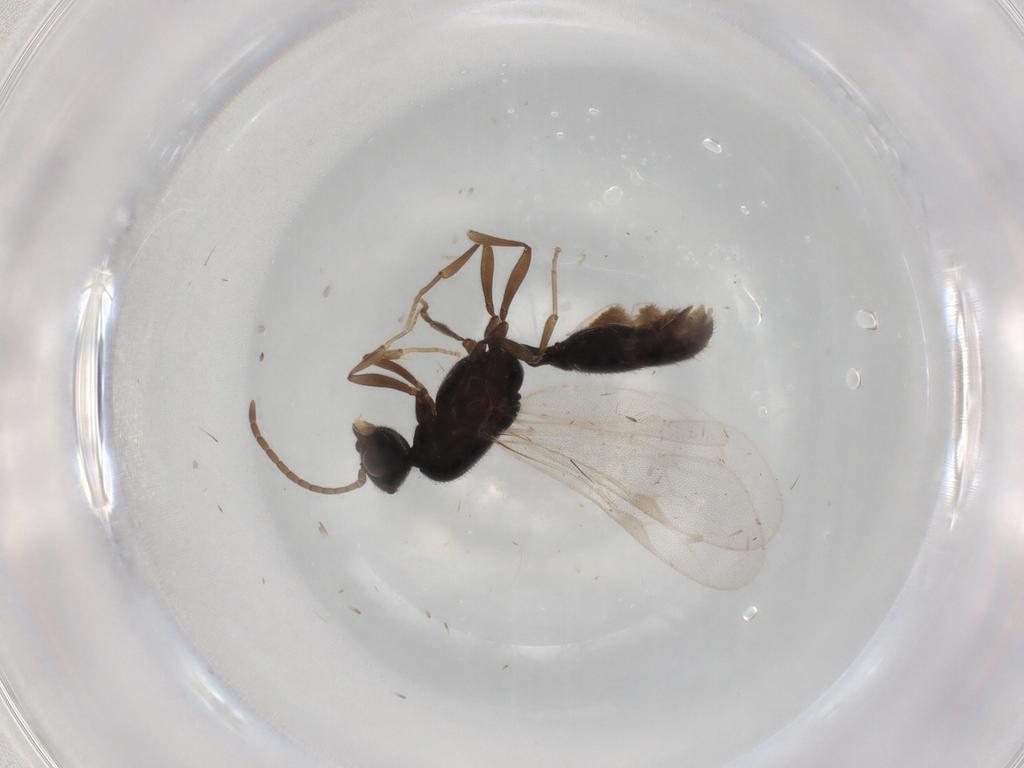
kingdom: Animalia
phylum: Arthropoda
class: Insecta
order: Hymenoptera
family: Formicidae
